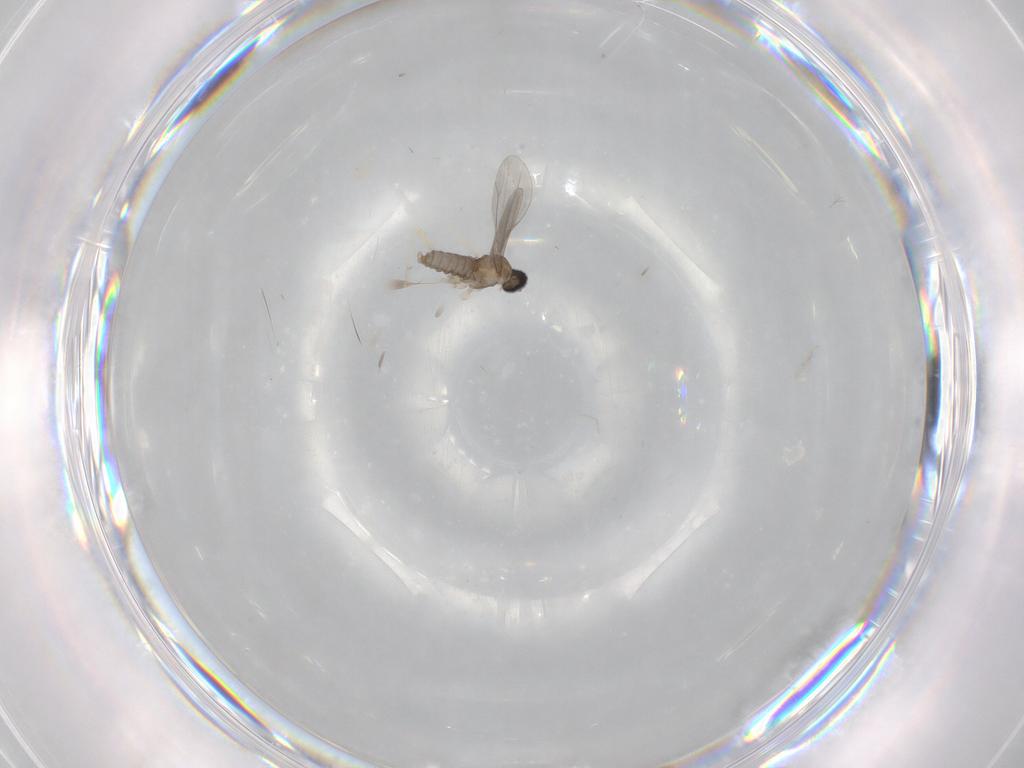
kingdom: Animalia
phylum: Arthropoda
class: Insecta
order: Diptera
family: Cecidomyiidae
